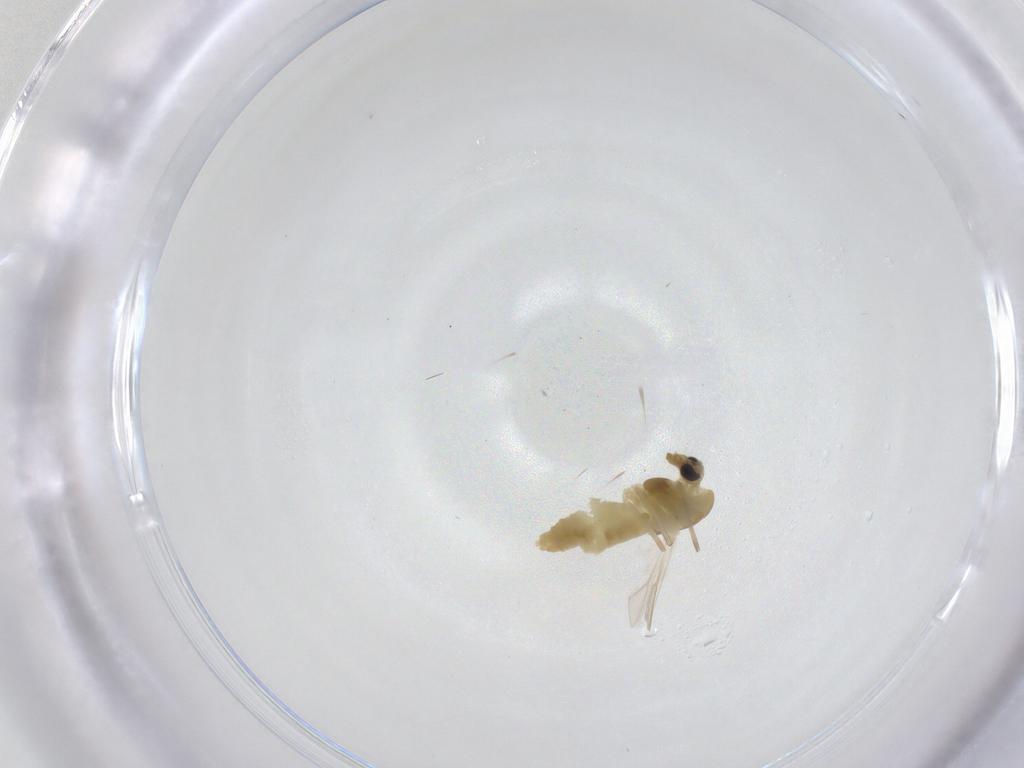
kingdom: Animalia
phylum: Arthropoda
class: Insecta
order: Diptera
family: Chironomidae
